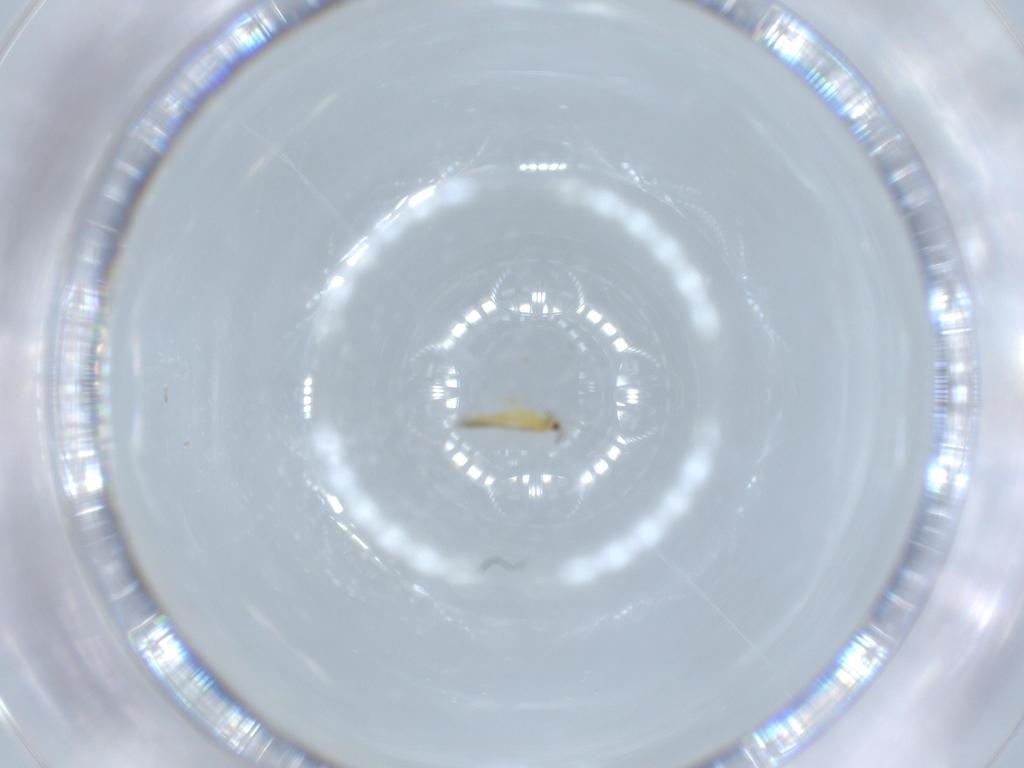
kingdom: Animalia
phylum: Arthropoda
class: Insecta
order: Thysanoptera
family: Thripidae
